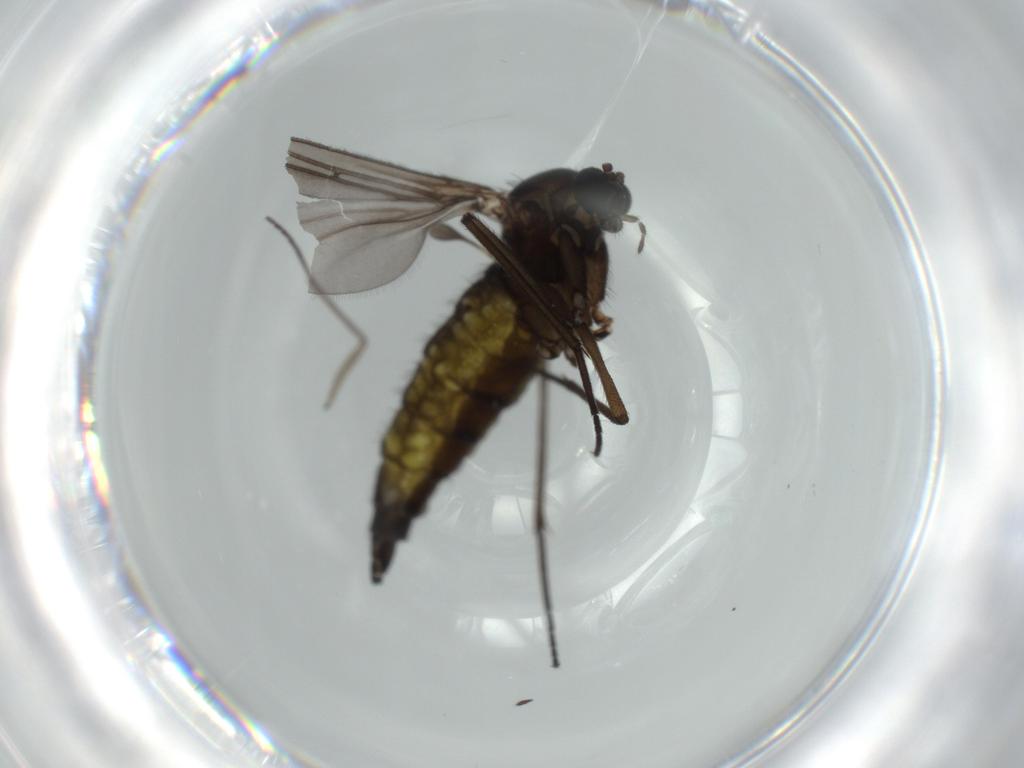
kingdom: Animalia
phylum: Arthropoda
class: Insecta
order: Diptera
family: Sciaridae
